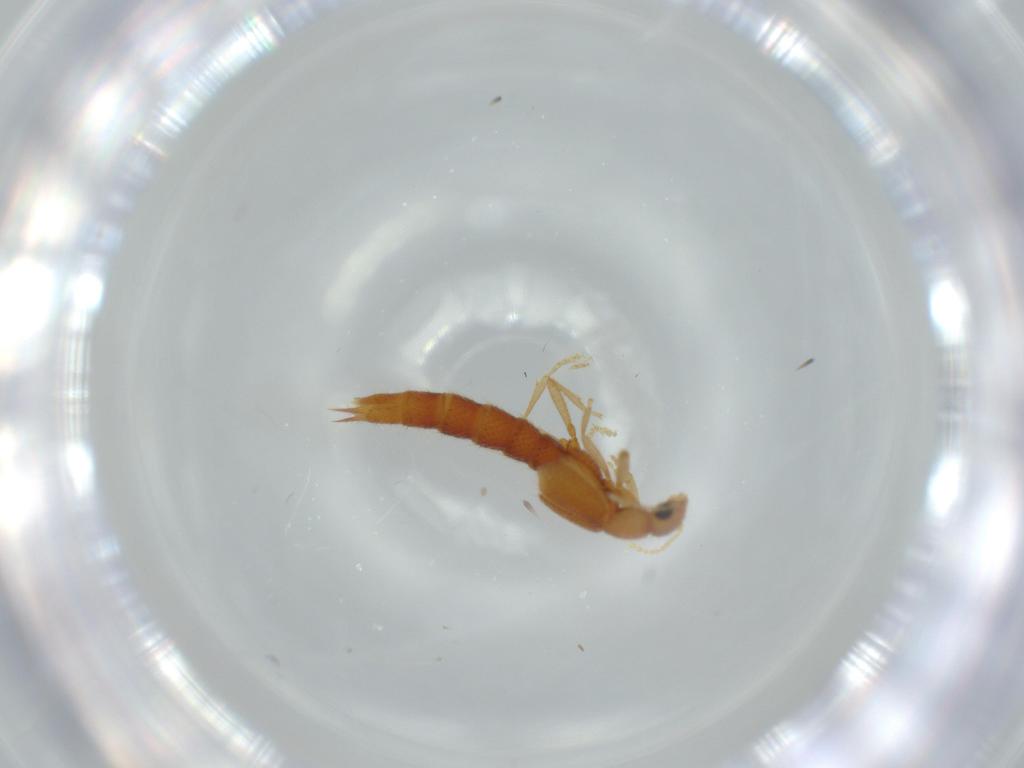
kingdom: Animalia
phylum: Arthropoda
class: Insecta
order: Coleoptera
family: Staphylinidae
